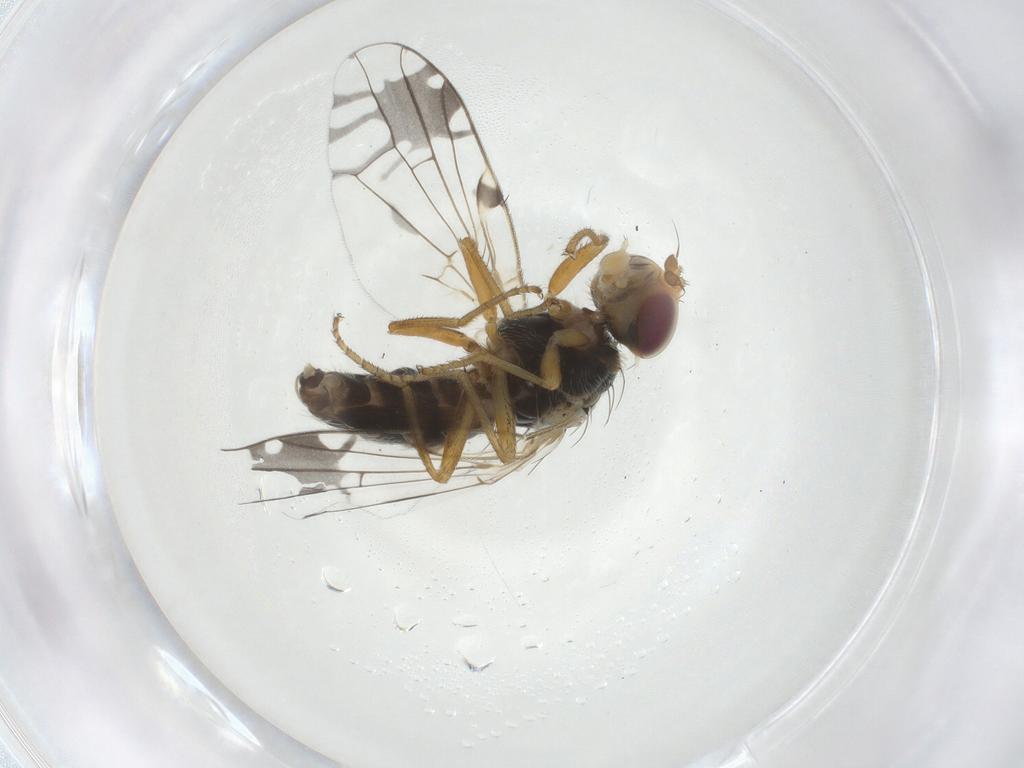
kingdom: Animalia
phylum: Arthropoda
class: Insecta
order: Diptera
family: Tephritidae
